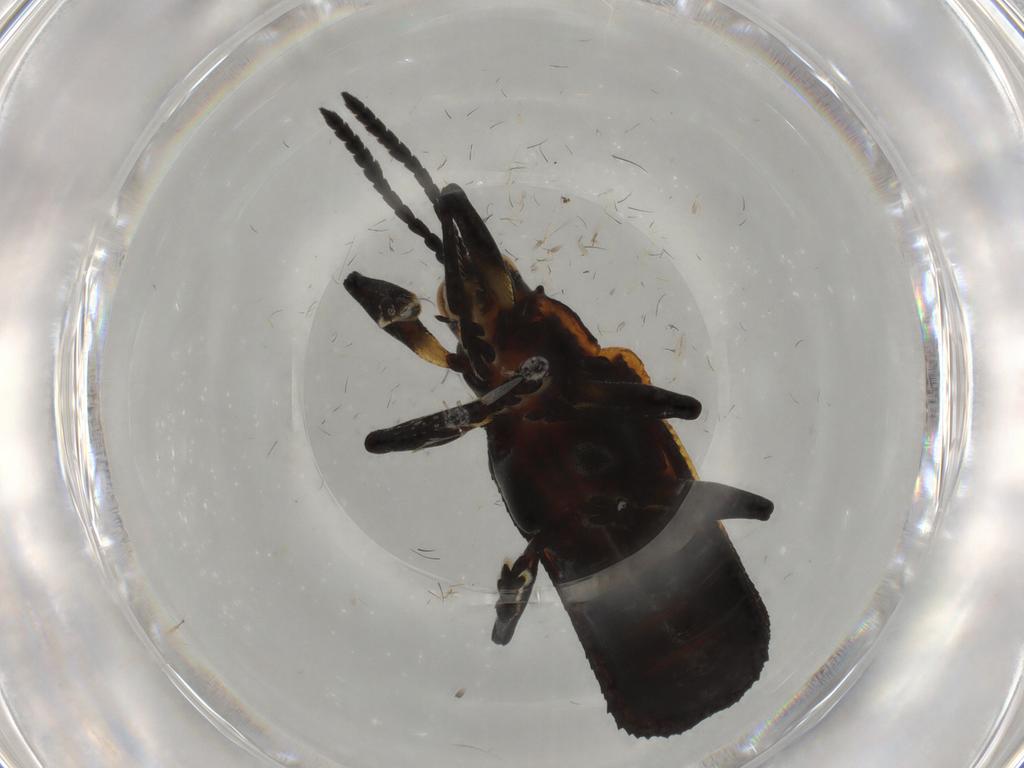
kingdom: Animalia
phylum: Arthropoda
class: Insecta
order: Coleoptera
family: Chrysomelidae
